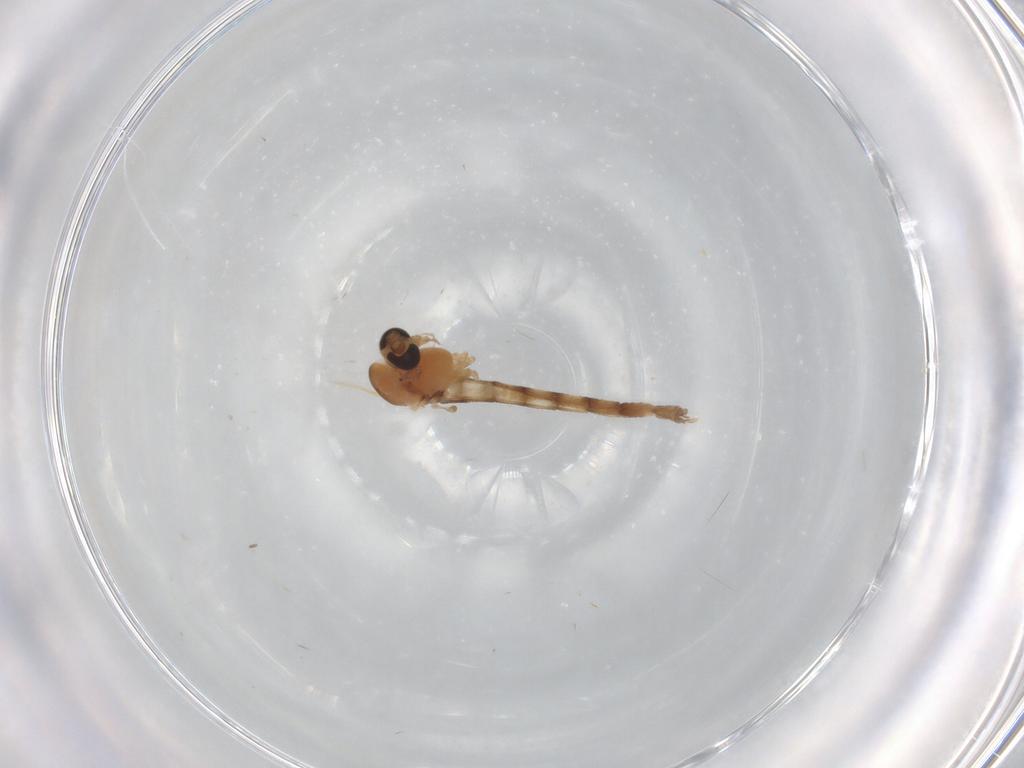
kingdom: Animalia
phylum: Arthropoda
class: Insecta
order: Diptera
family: Chironomidae
